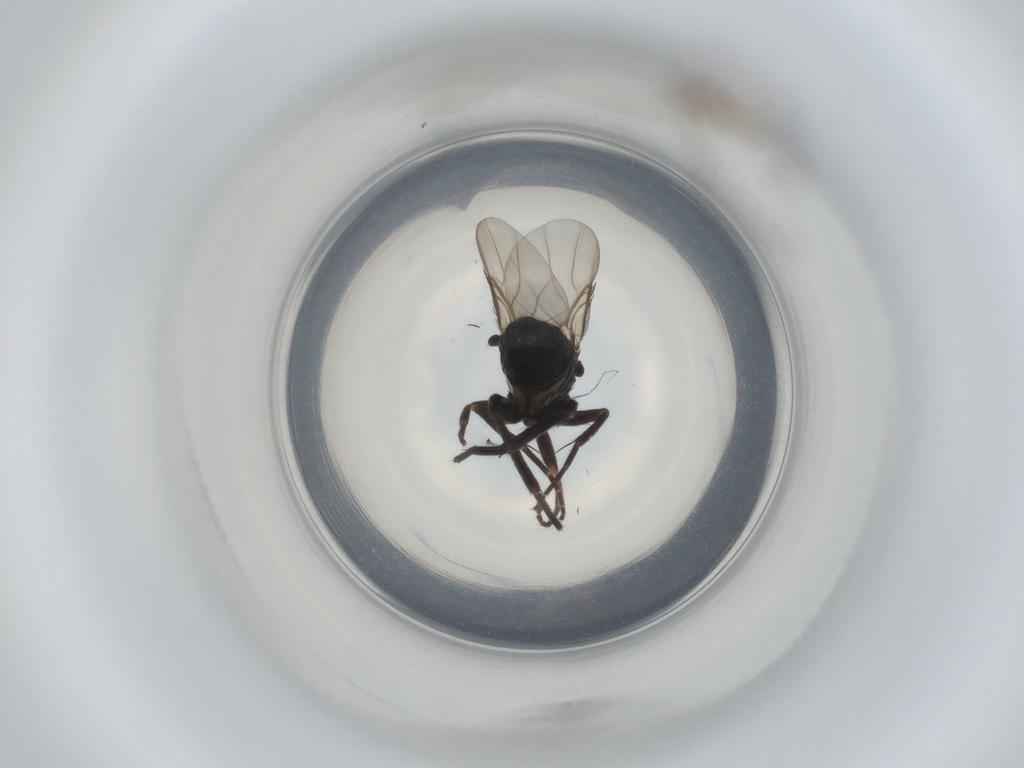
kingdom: Animalia
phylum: Arthropoda
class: Insecta
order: Diptera
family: Phoridae
